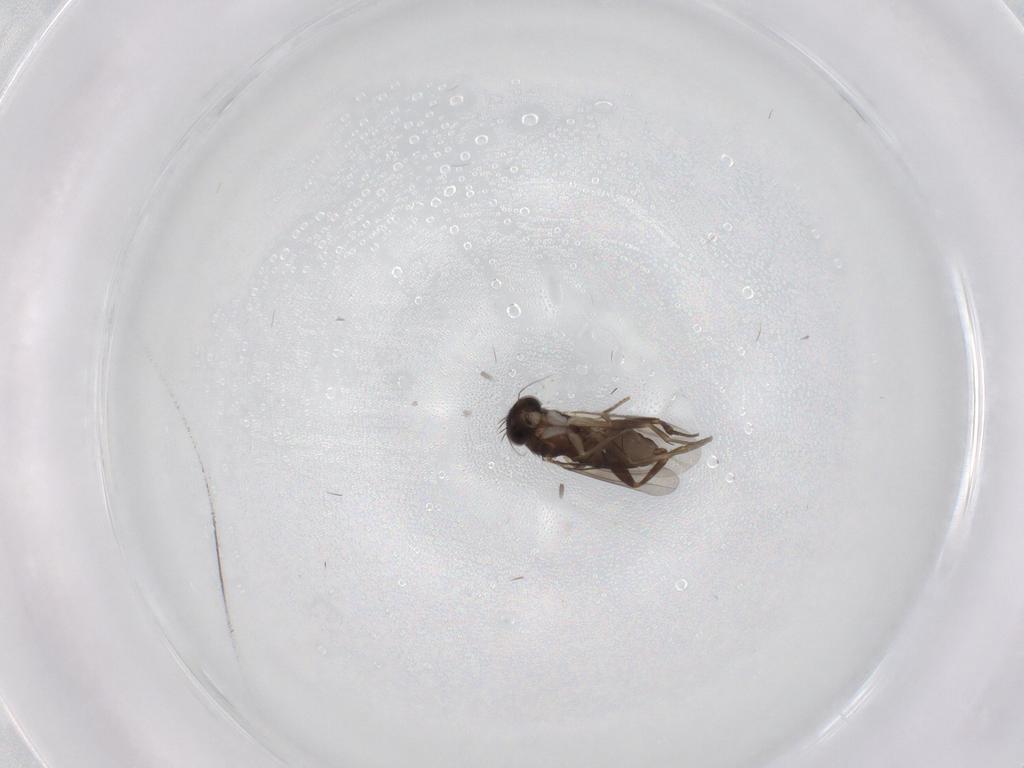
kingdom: Animalia
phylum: Arthropoda
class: Insecta
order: Diptera
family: Phoridae
